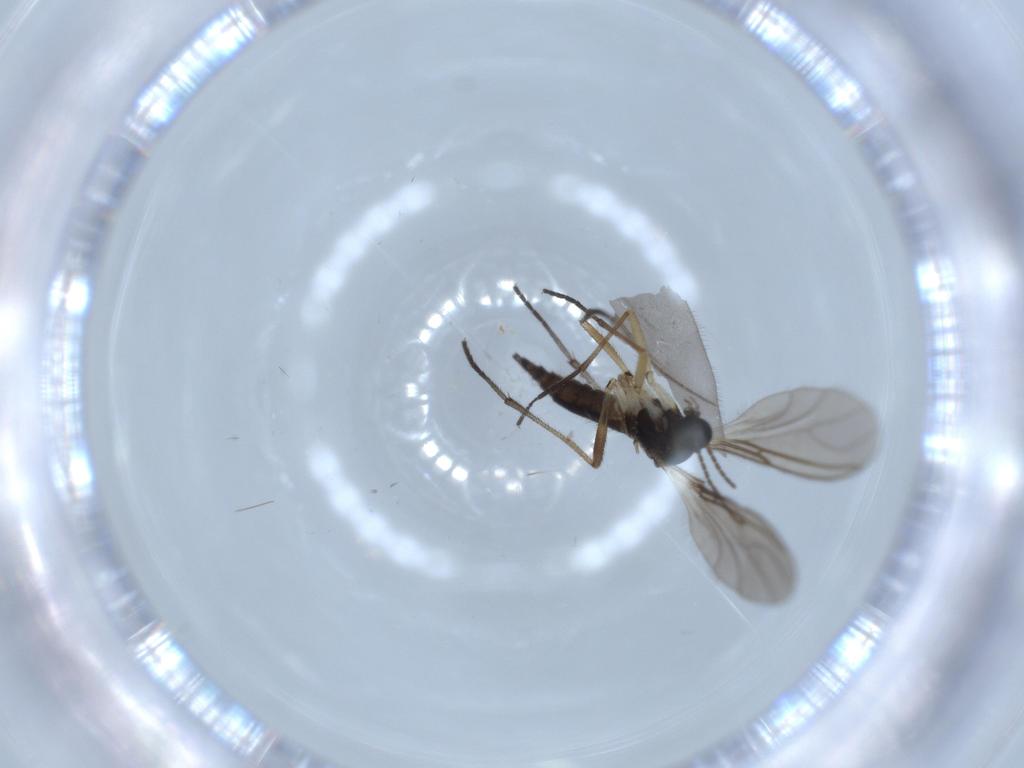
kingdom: Animalia
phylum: Arthropoda
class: Insecta
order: Diptera
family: Sciaridae
